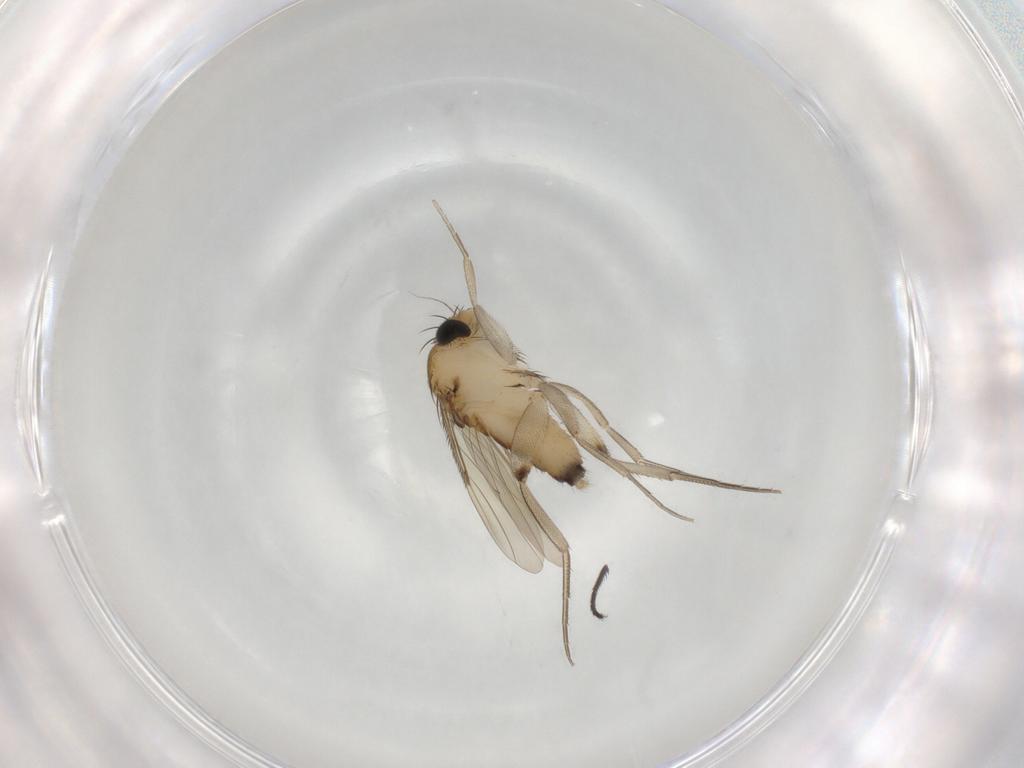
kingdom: Animalia
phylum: Arthropoda
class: Insecta
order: Diptera
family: Phoridae
